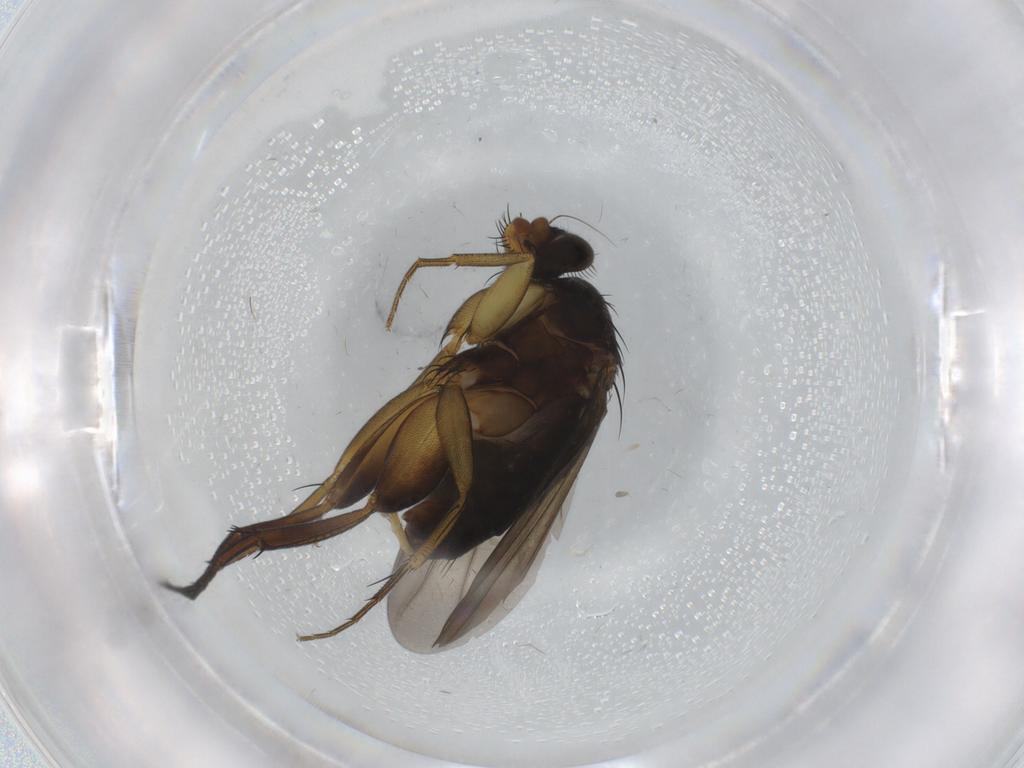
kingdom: Animalia
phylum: Arthropoda
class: Insecta
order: Diptera
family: Phoridae
